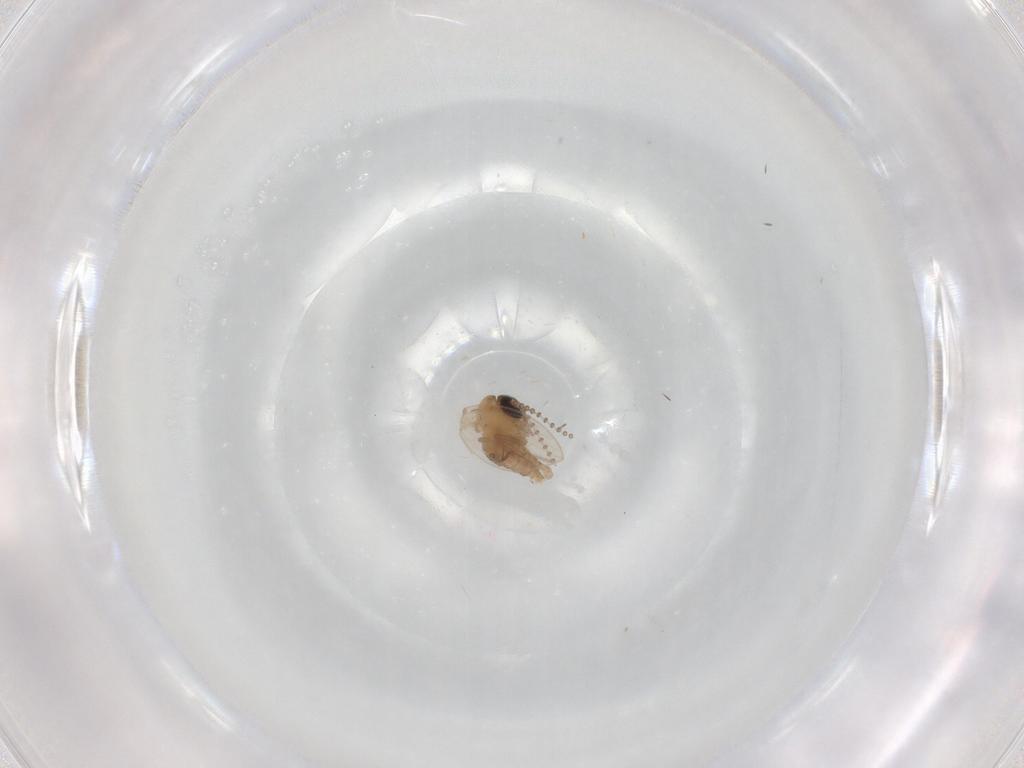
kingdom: Animalia
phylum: Arthropoda
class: Insecta
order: Diptera
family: Psychodidae
